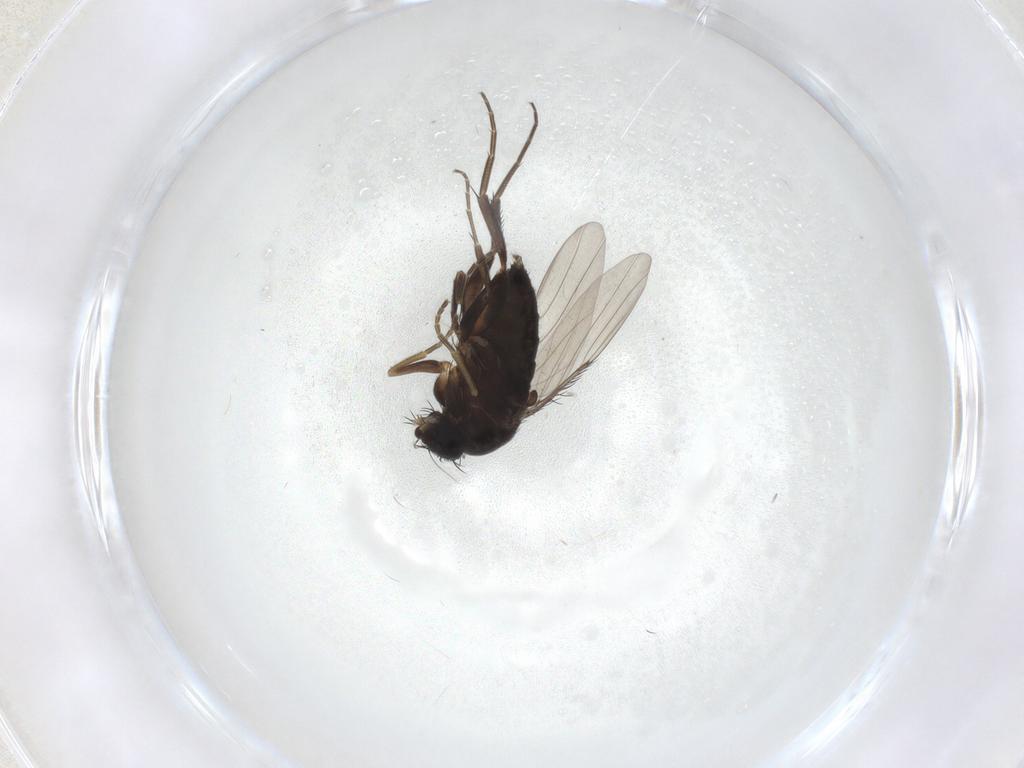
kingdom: Animalia
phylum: Arthropoda
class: Insecta
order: Diptera
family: Phoridae
